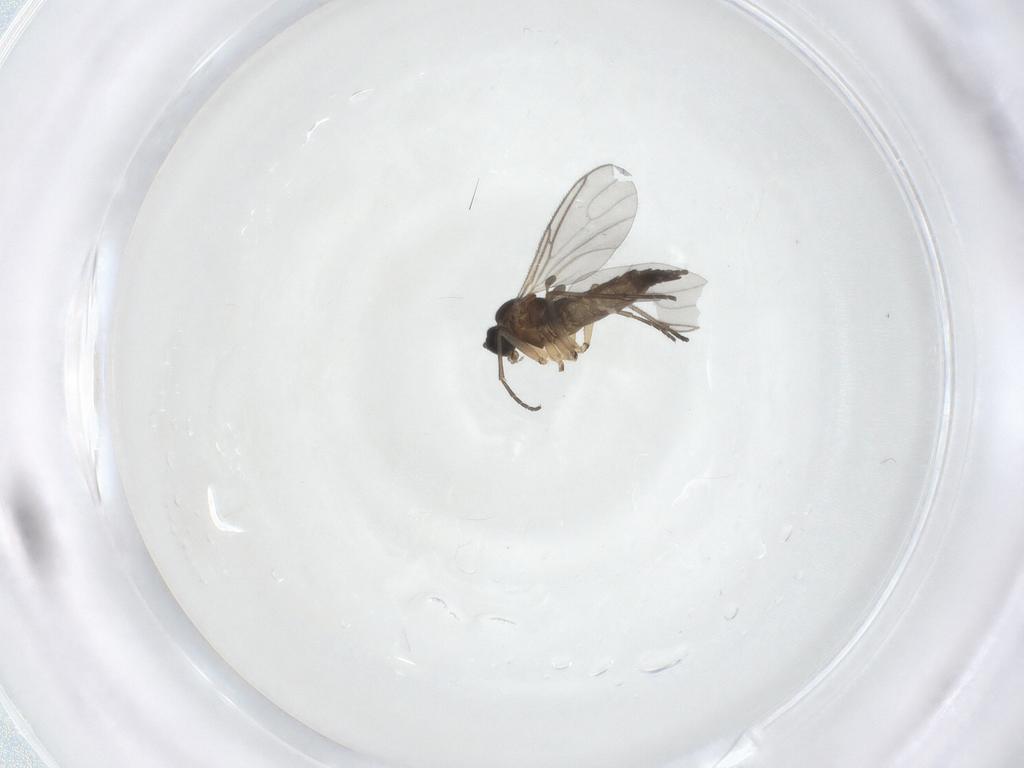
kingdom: Animalia
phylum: Arthropoda
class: Insecta
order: Diptera
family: Sciaridae
